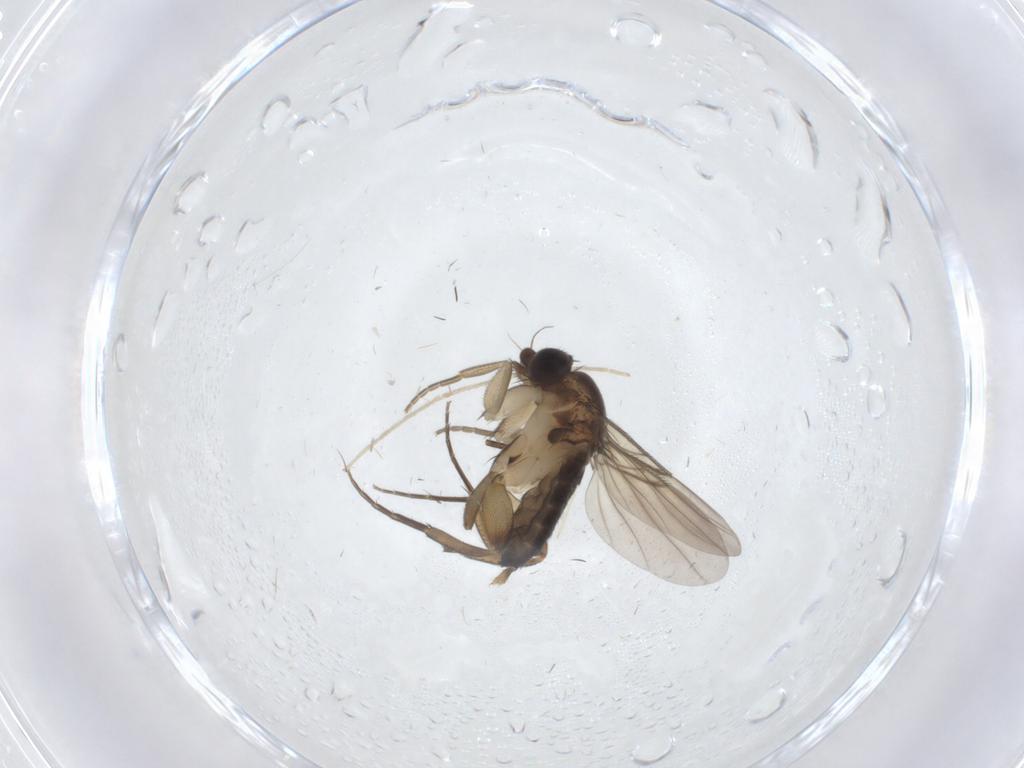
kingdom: Animalia
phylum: Arthropoda
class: Insecta
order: Diptera
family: Phoridae
